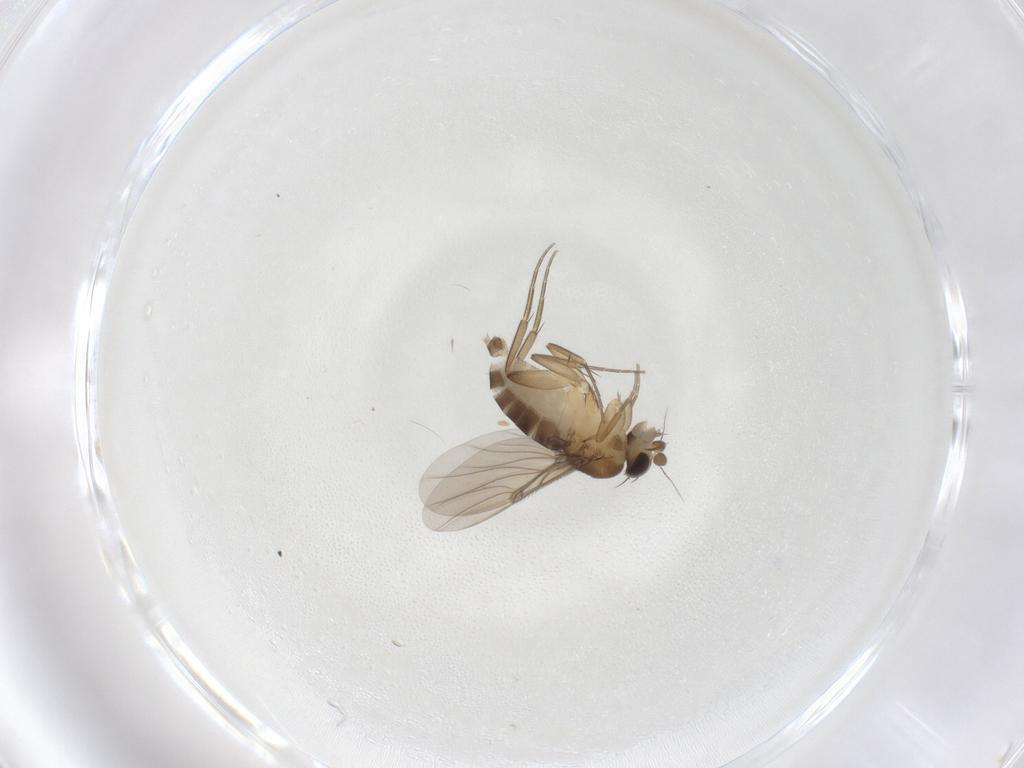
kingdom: Animalia
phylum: Arthropoda
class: Insecta
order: Diptera
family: Phoridae
